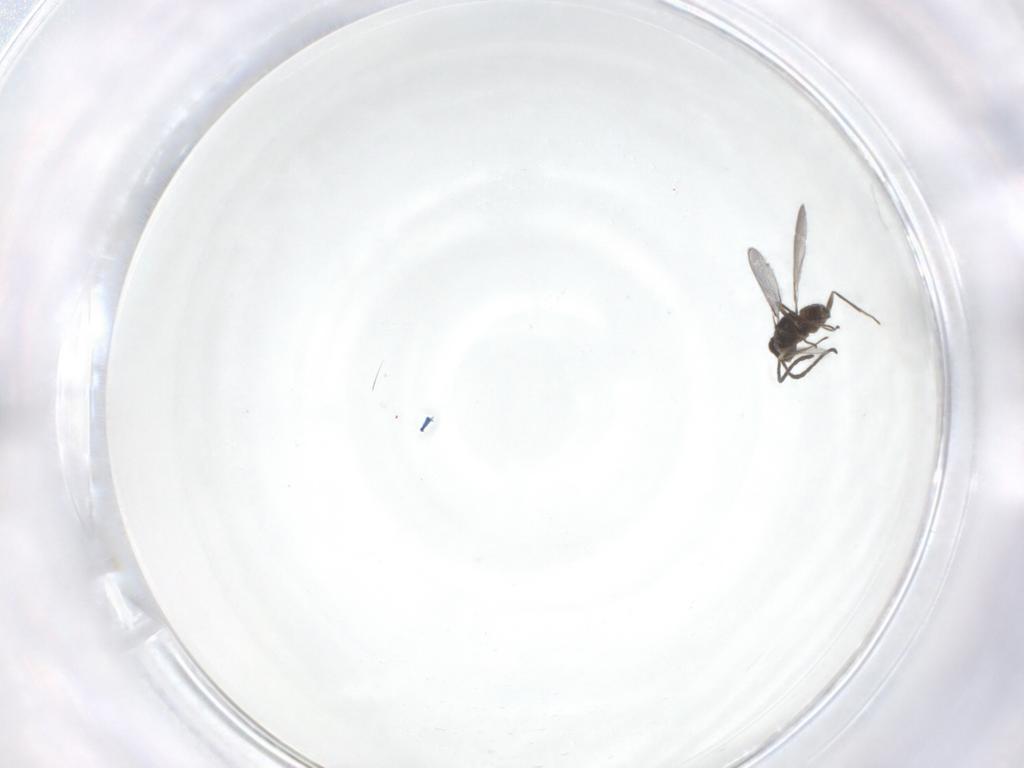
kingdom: Animalia
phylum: Arthropoda
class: Insecta
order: Hymenoptera
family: Mymaridae
